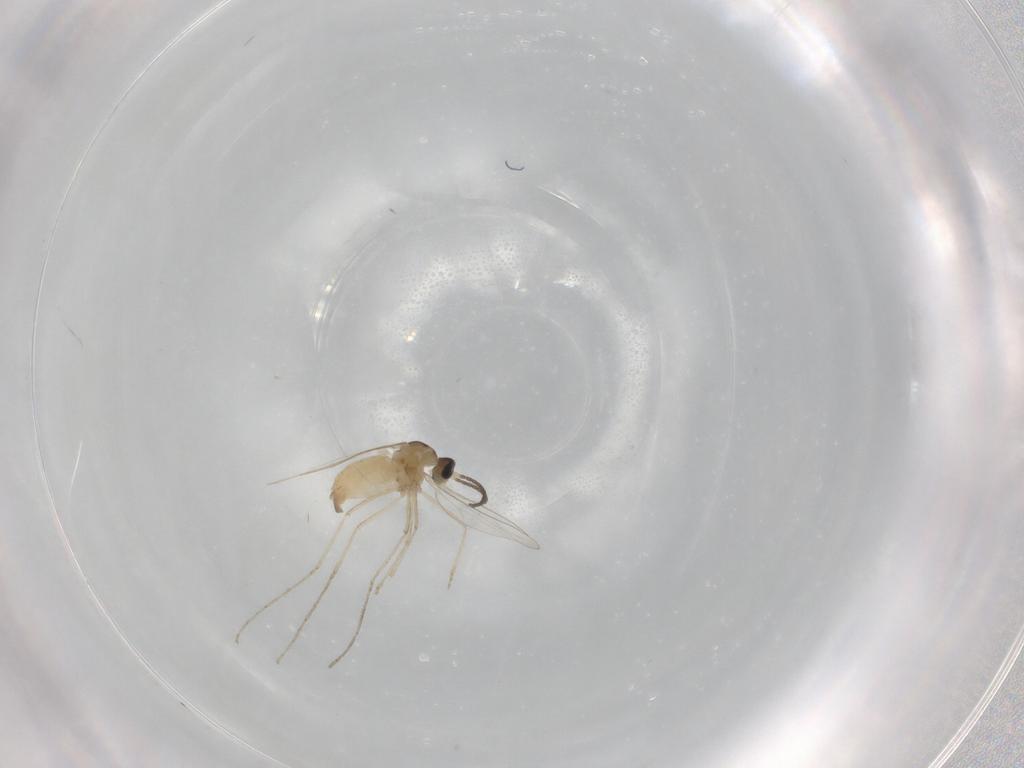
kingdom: Animalia
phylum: Arthropoda
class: Insecta
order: Diptera
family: Cecidomyiidae
